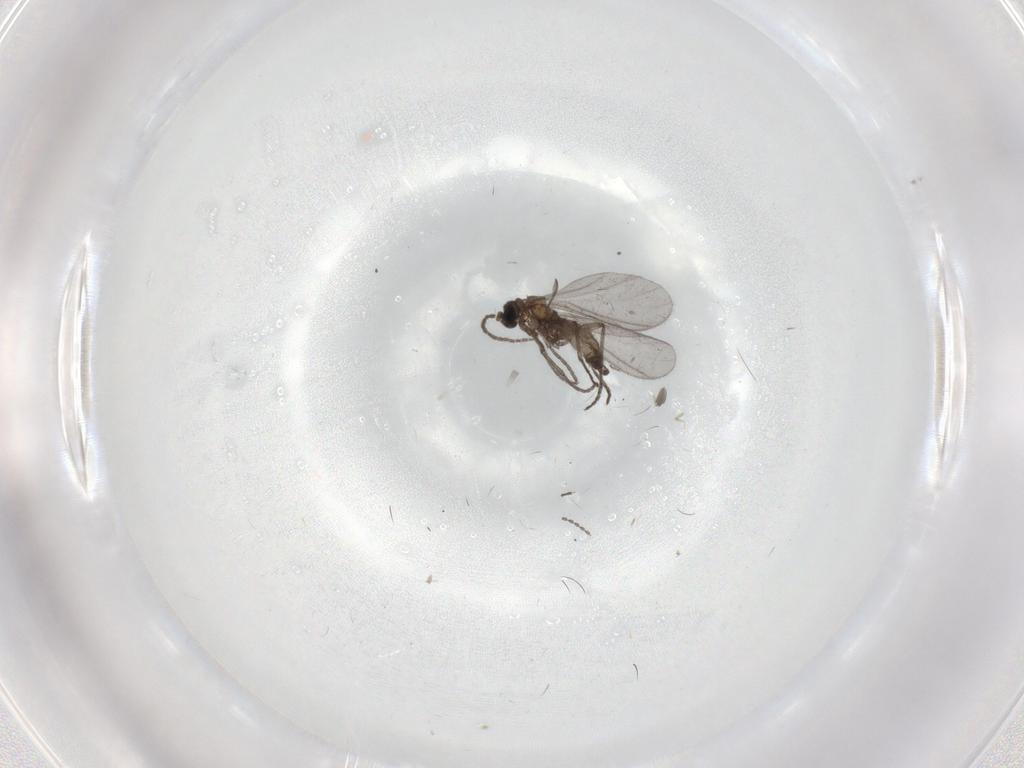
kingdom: Animalia
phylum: Arthropoda
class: Insecta
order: Diptera
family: Sciaridae
